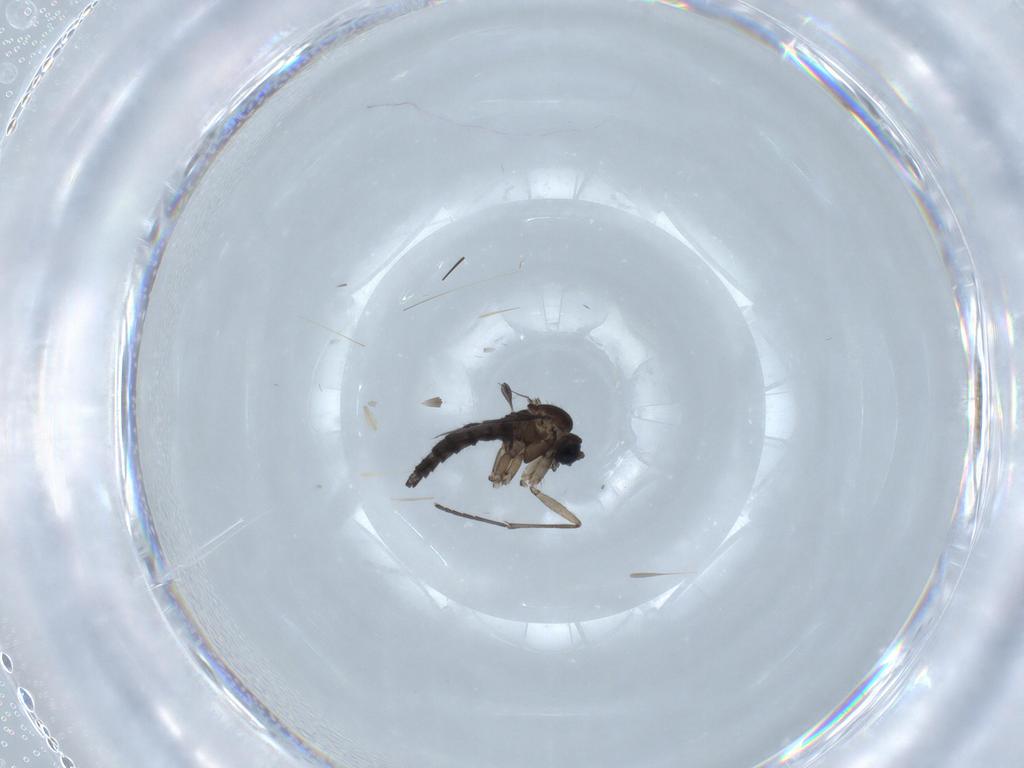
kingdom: Animalia
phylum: Arthropoda
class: Insecta
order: Diptera
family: Sciaridae
